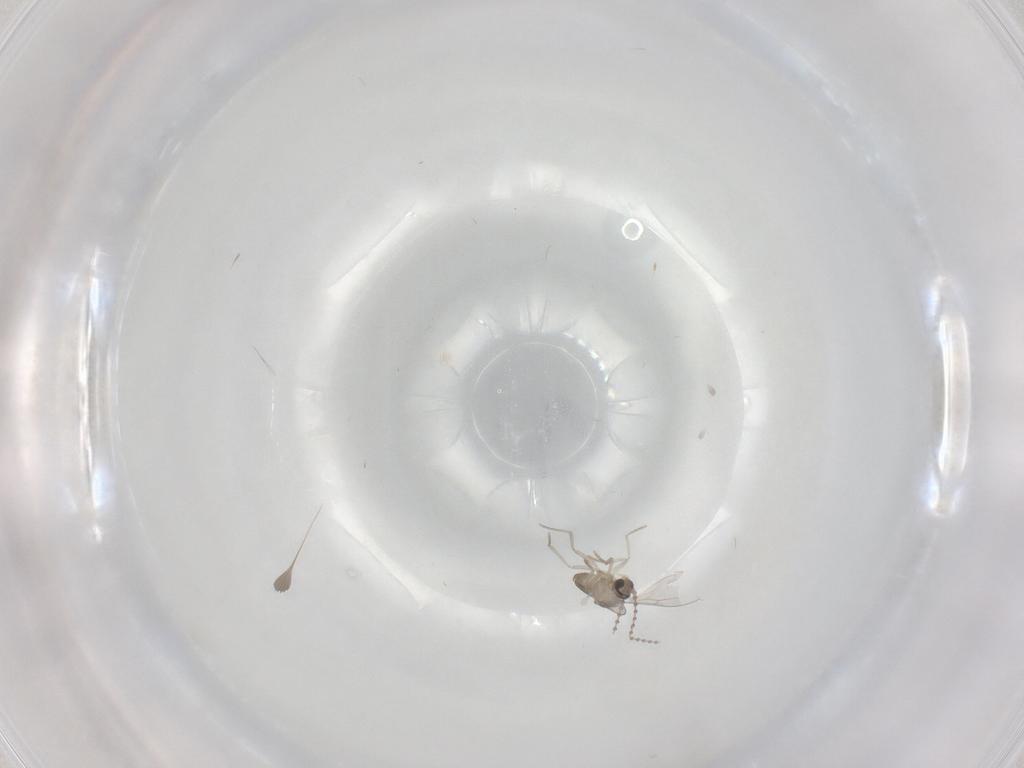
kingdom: Animalia
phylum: Arthropoda
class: Insecta
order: Diptera
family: Cecidomyiidae
